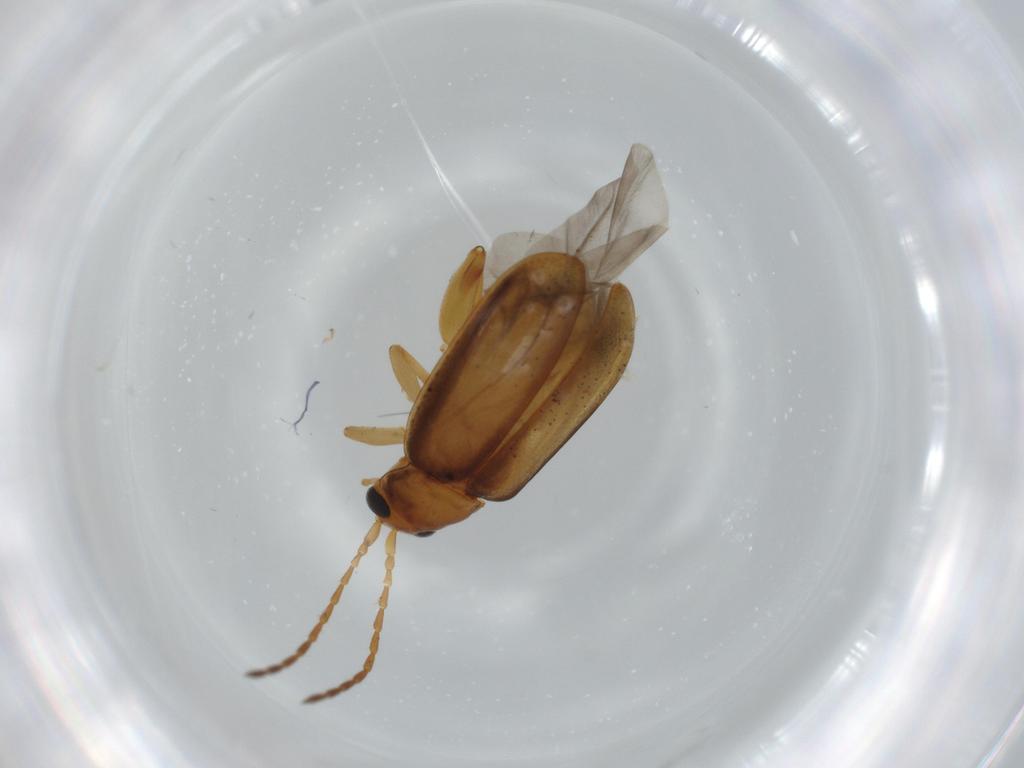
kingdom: Animalia
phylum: Arthropoda
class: Insecta
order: Coleoptera
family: Chrysomelidae
